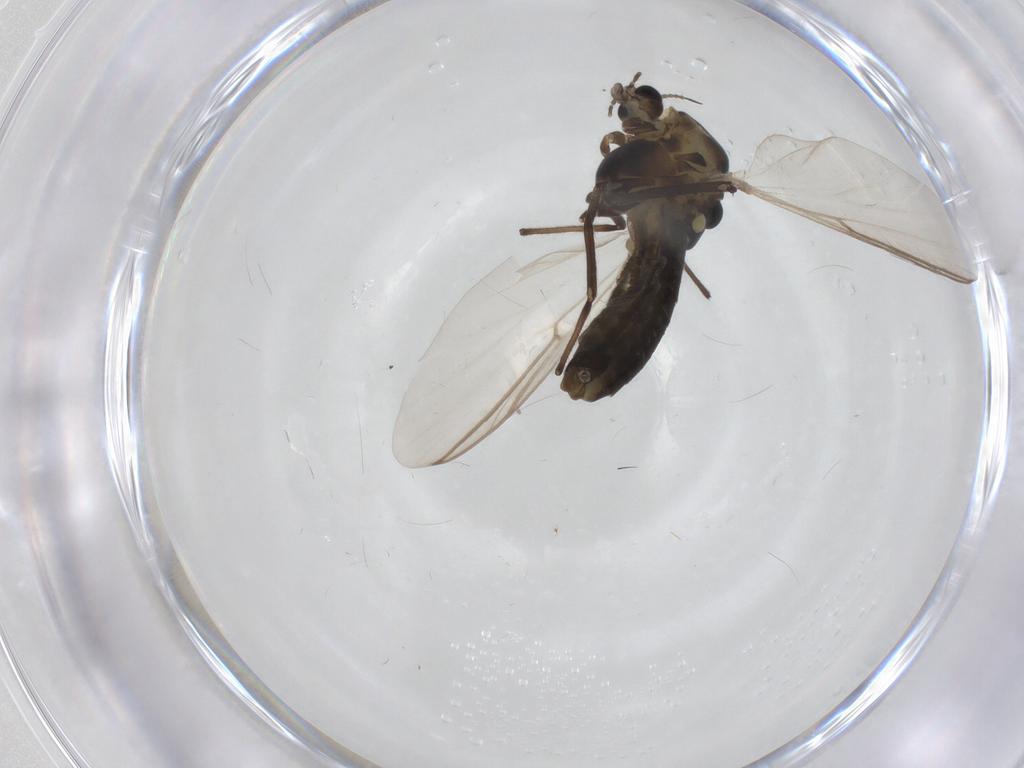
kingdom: Animalia
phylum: Arthropoda
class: Insecta
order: Diptera
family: Chironomidae
